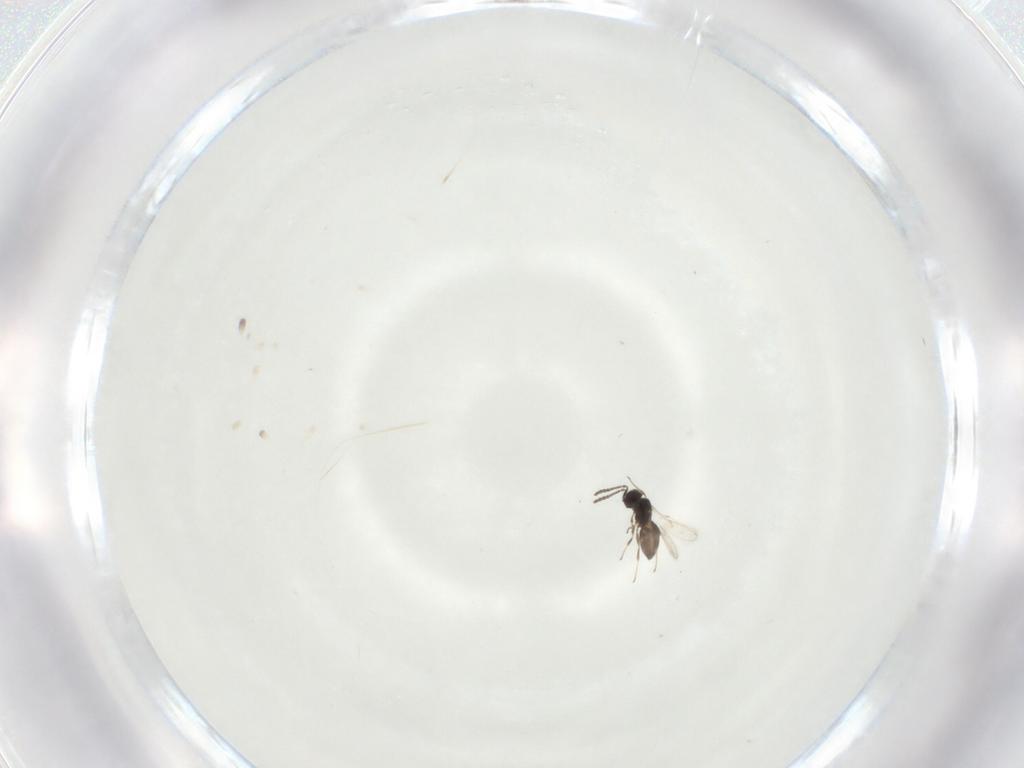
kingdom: Animalia
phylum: Arthropoda
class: Insecta
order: Hymenoptera
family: Scelionidae
